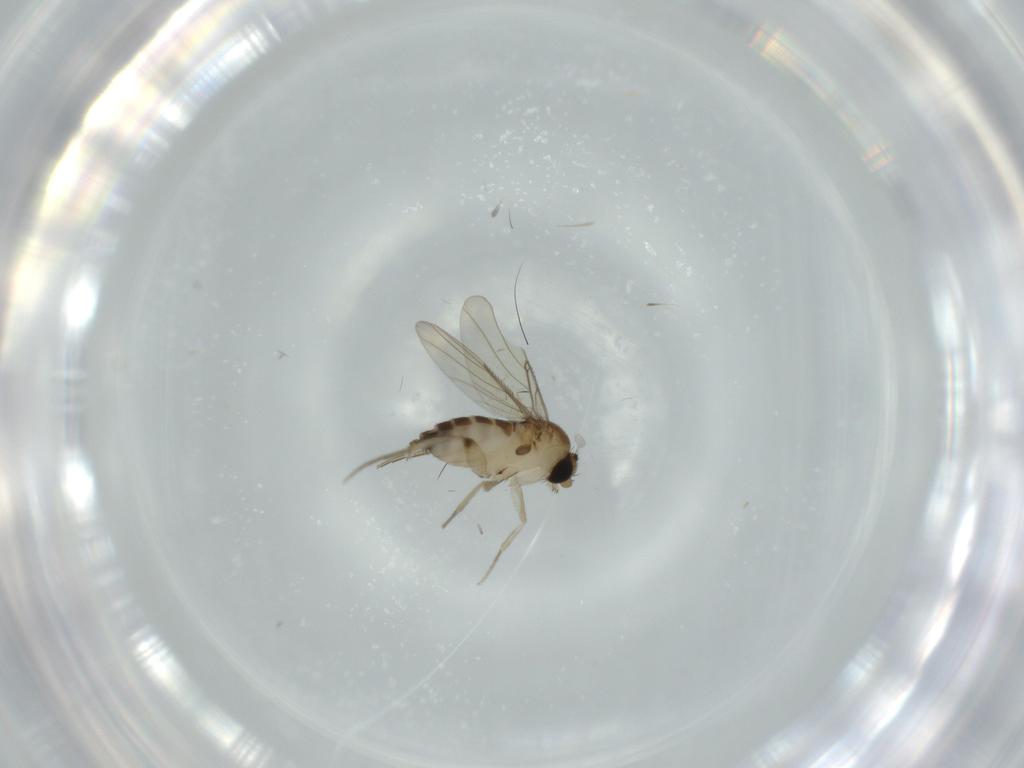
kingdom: Animalia
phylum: Arthropoda
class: Insecta
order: Diptera
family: Phoridae
